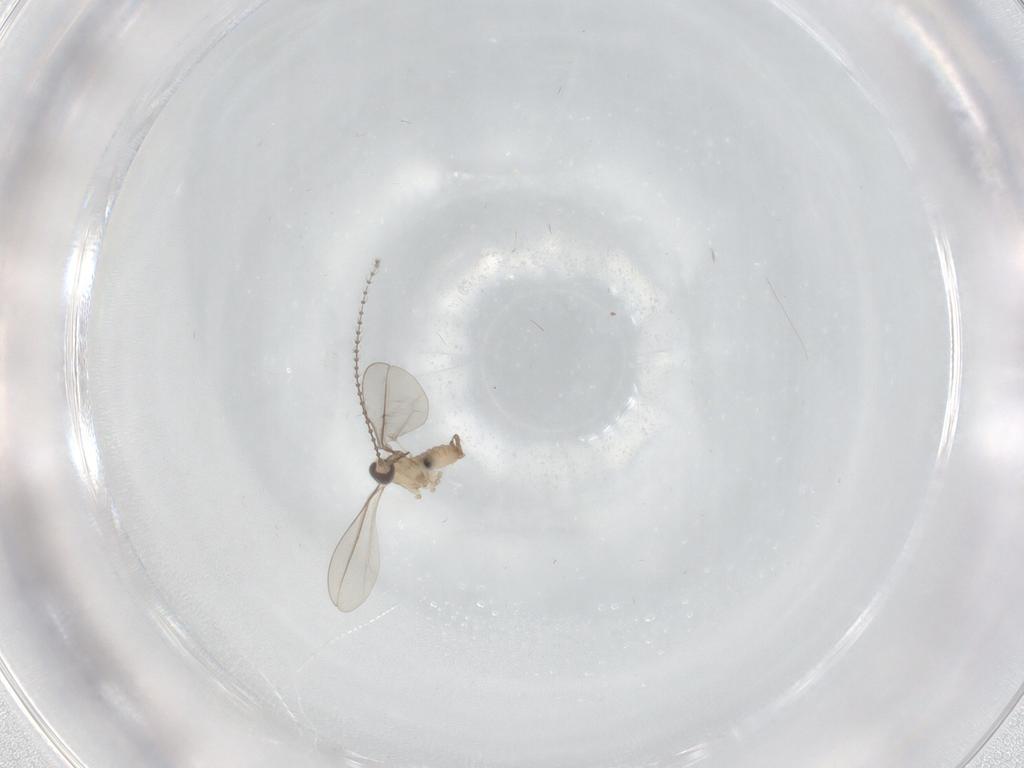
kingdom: Animalia
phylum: Arthropoda
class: Insecta
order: Diptera
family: Cecidomyiidae
